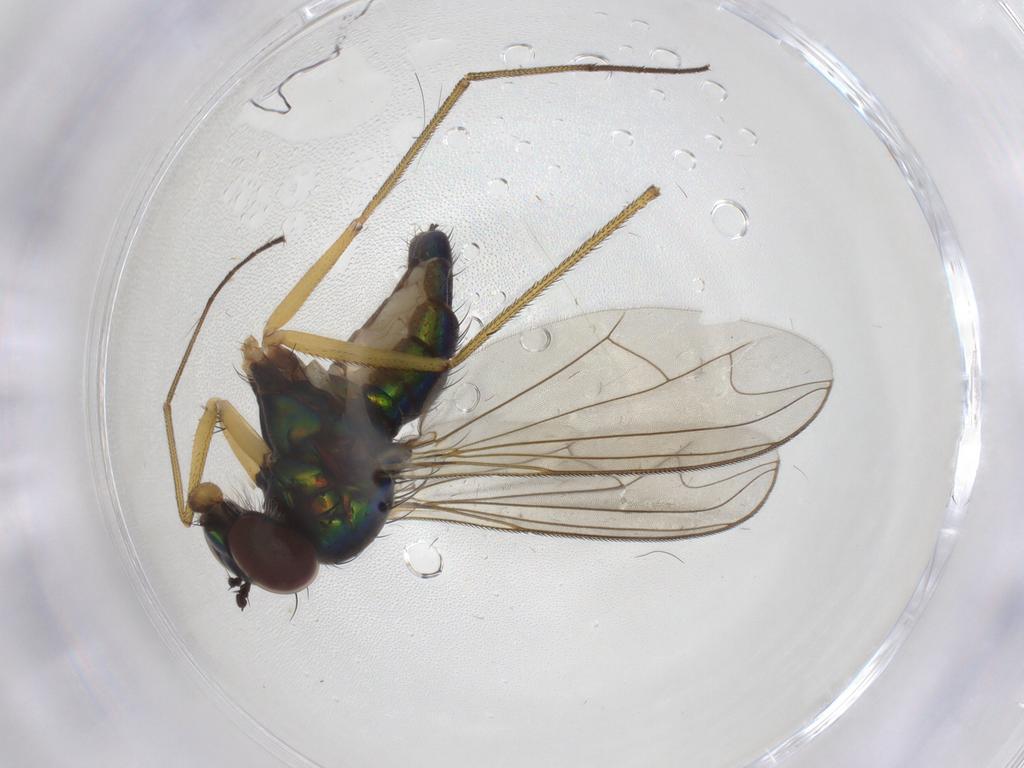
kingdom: Animalia
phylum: Arthropoda
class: Insecta
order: Diptera
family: Dolichopodidae
